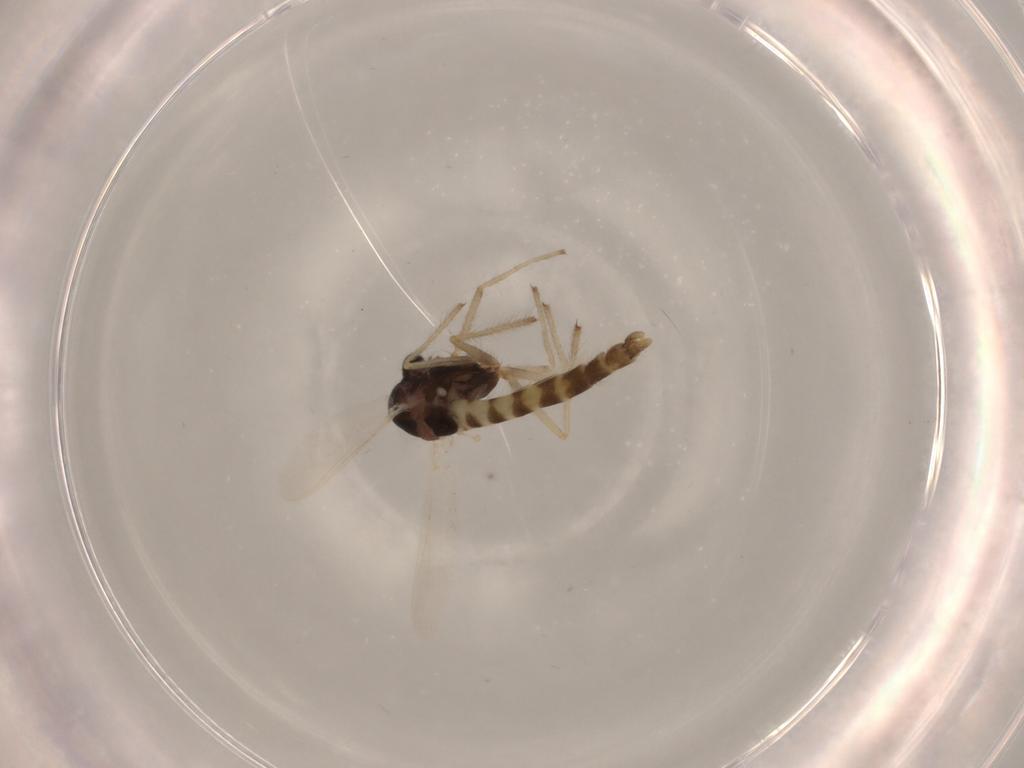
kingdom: Animalia
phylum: Arthropoda
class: Insecta
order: Diptera
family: Chironomidae
